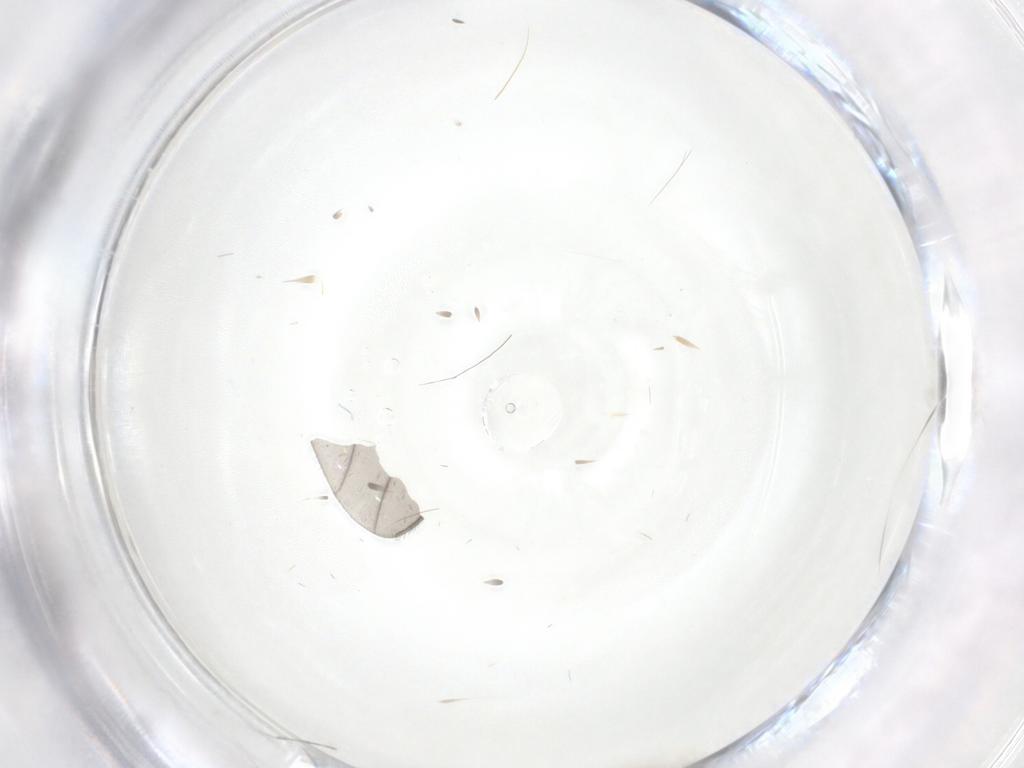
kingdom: Animalia
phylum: Arthropoda
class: Insecta
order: Diptera
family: Cecidomyiidae
